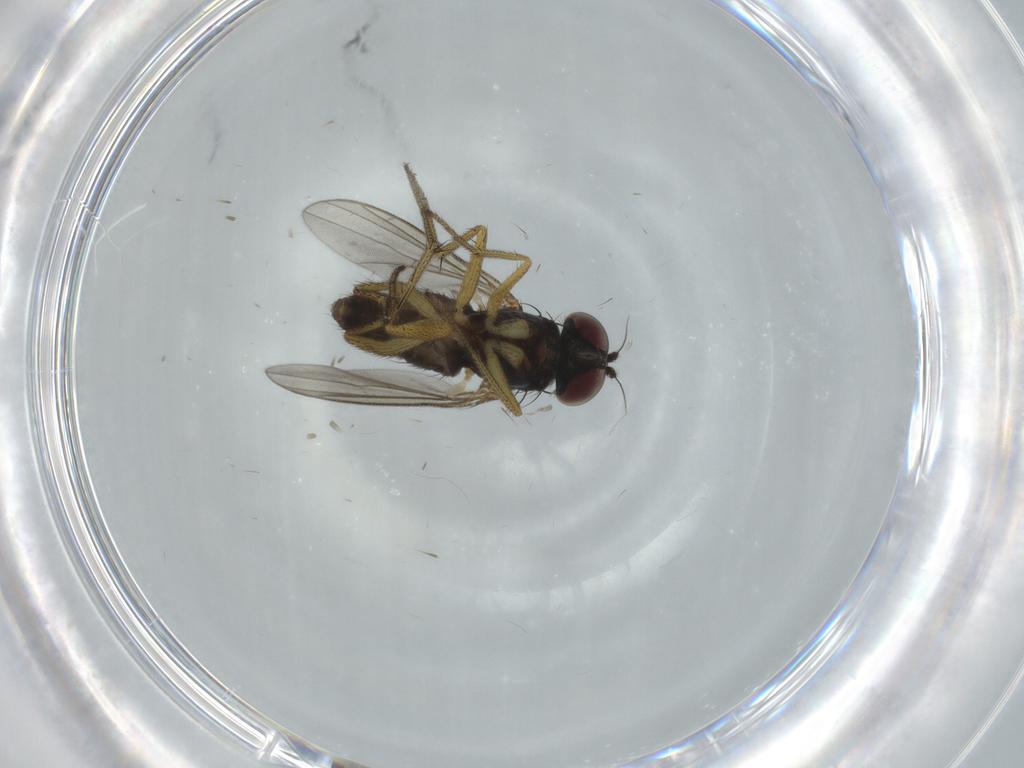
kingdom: Animalia
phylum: Arthropoda
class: Insecta
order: Diptera
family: Dolichopodidae
